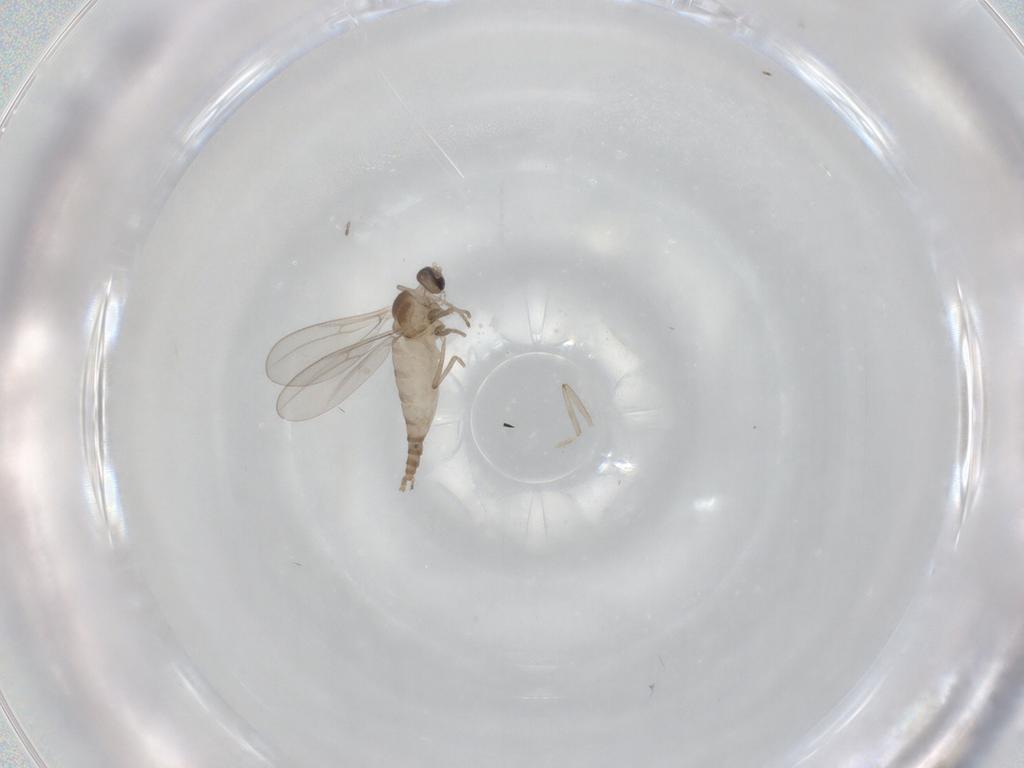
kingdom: Animalia
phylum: Arthropoda
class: Insecta
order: Diptera
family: Cecidomyiidae
